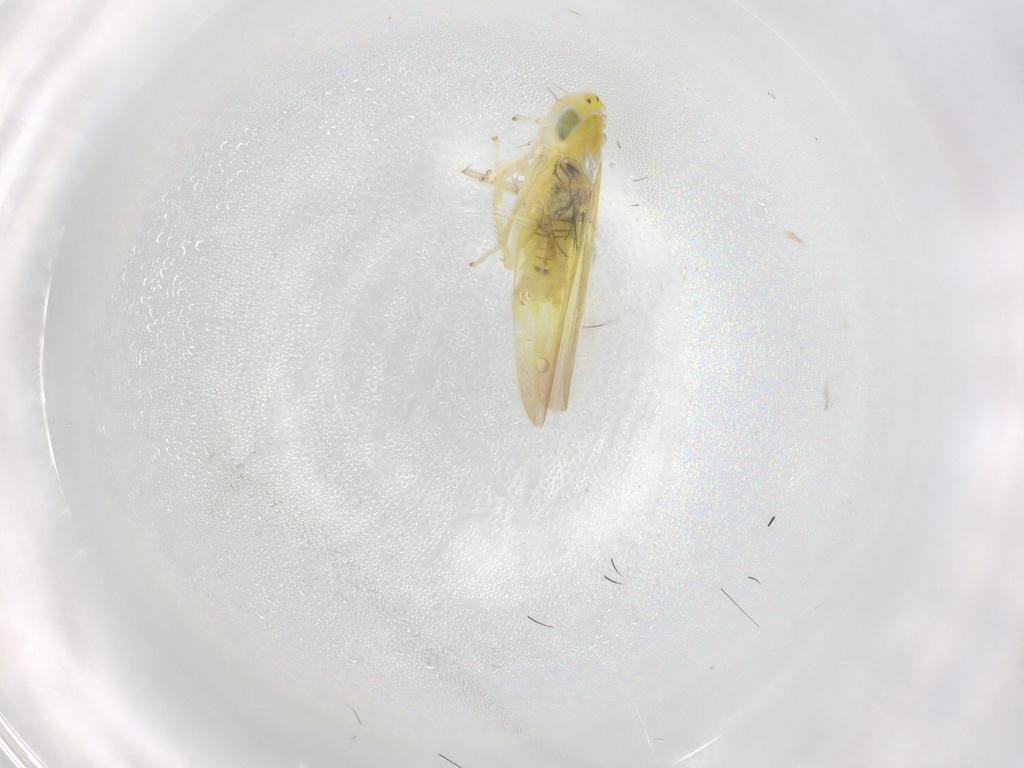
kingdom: Animalia
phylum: Arthropoda
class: Insecta
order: Hemiptera
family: Cicadellidae
